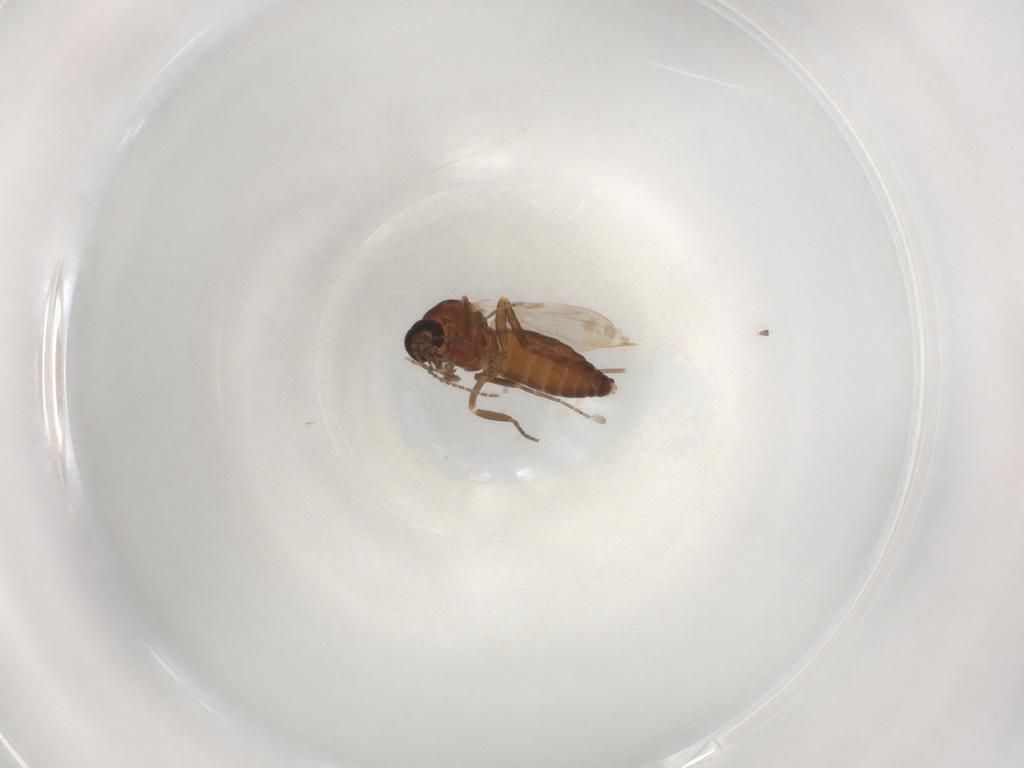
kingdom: Animalia
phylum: Arthropoda
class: Insecta
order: Diptera
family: Ceratopogonidae
